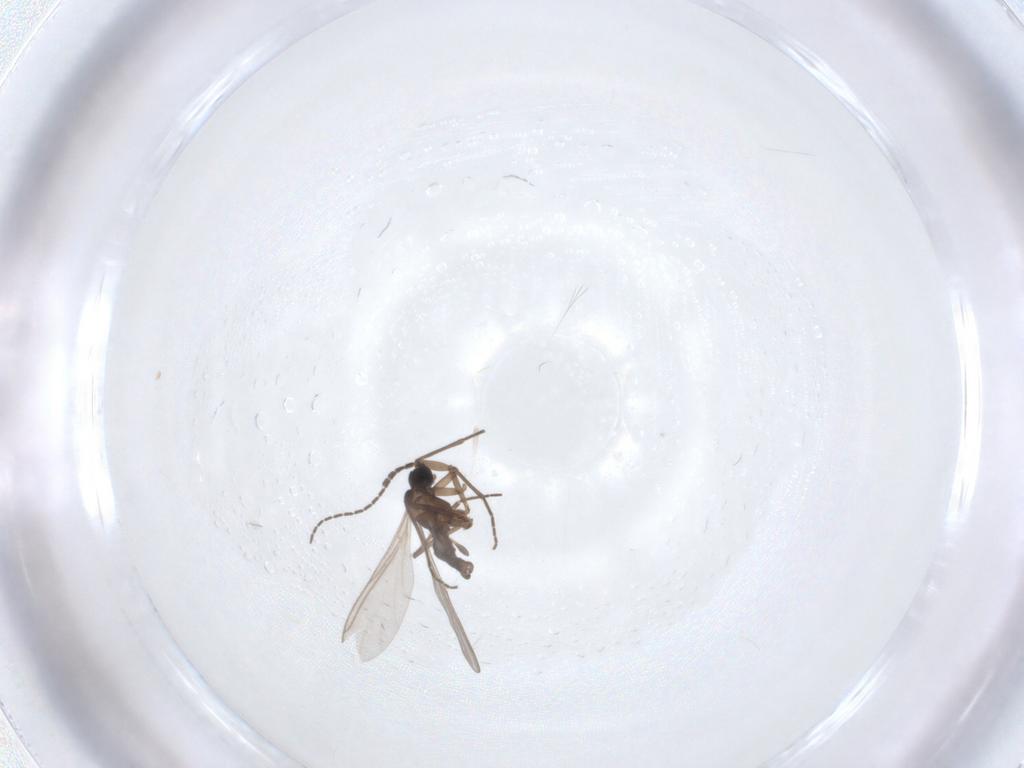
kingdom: Animalia
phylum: Arthropoda
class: Insecta
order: Diptera
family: Bombyliidae
